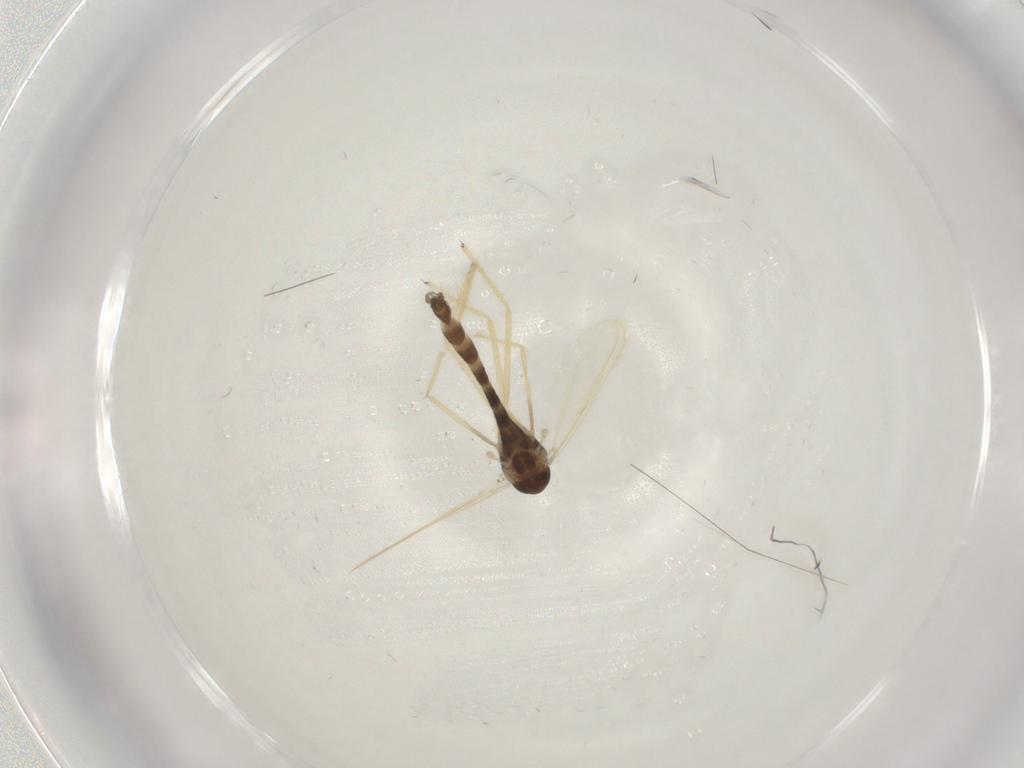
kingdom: Animalia
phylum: Arthropoda
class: Insecta
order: Diptera
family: Chironomidae
